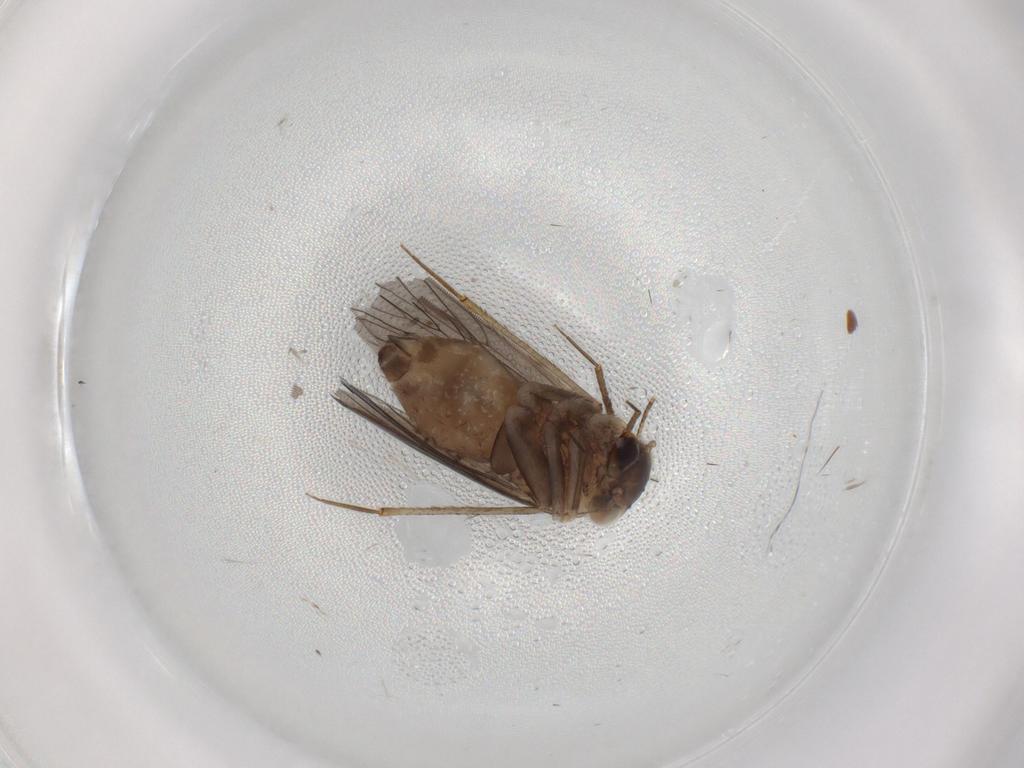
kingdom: Animalia
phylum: Arthropoda
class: Insecta
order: Psocodea
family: Lepidopsocidae
